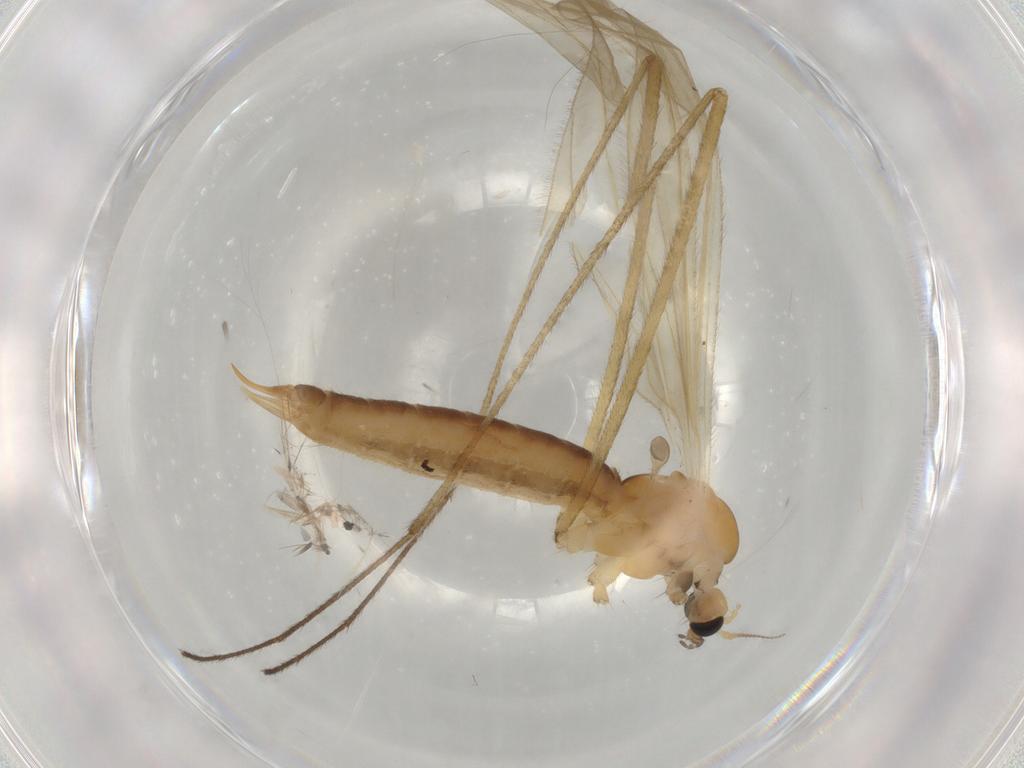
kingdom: Animalia
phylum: Arthropoda
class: Insecta
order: Diptera
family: Limoniidae
